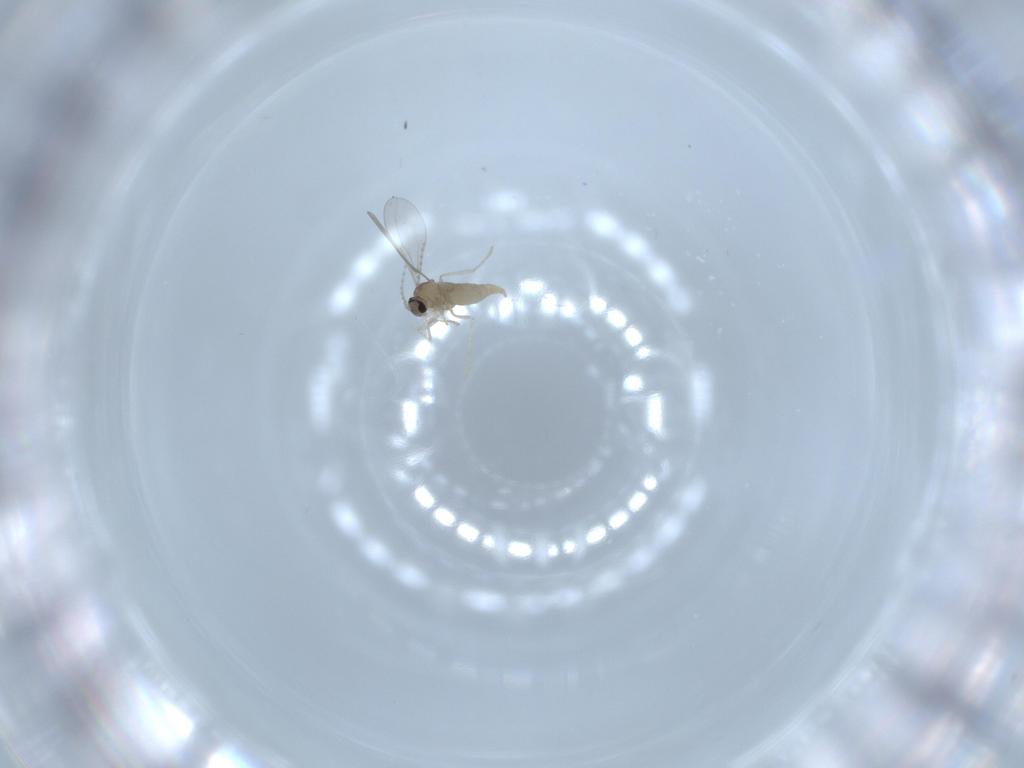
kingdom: Animalia
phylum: Arthropoda
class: Insecta
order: Diptera
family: Cecidomyiidae
